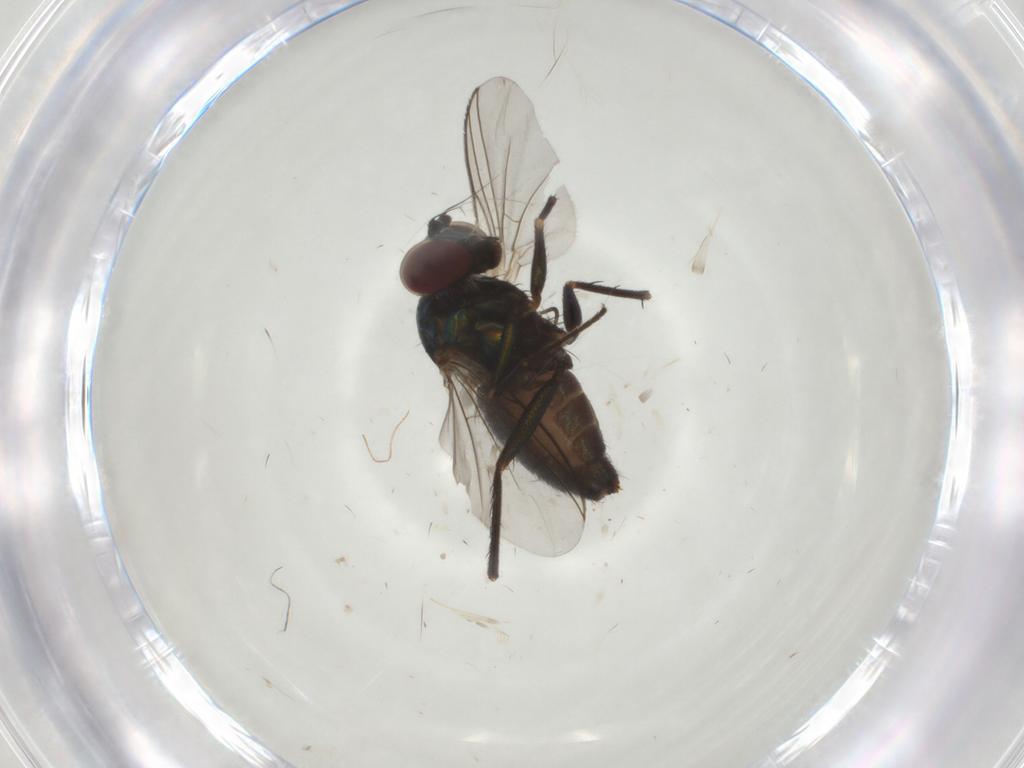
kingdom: Animalia
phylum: Arthropoda
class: Insecta
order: Diptera
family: Dolichopodidae
